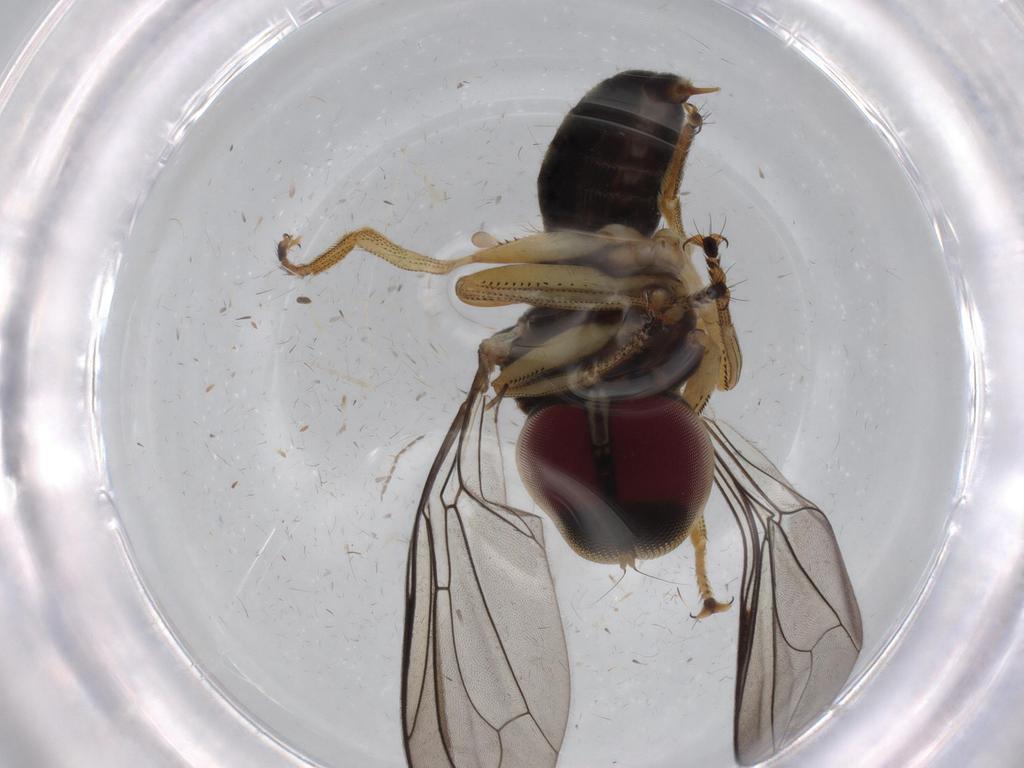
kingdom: Animalia
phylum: Arthropoda
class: Insecta
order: Diptera
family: Pipunculidae
